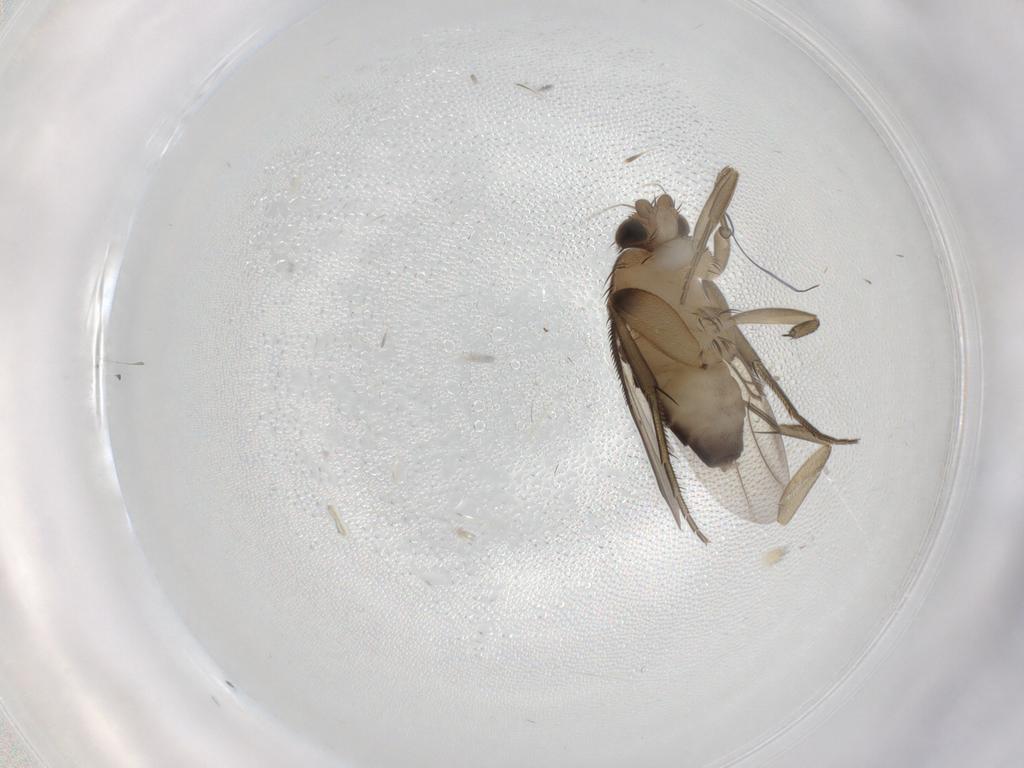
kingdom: Animalia
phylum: Arthropoda
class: Insecta
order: Diptera
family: Phoridae
